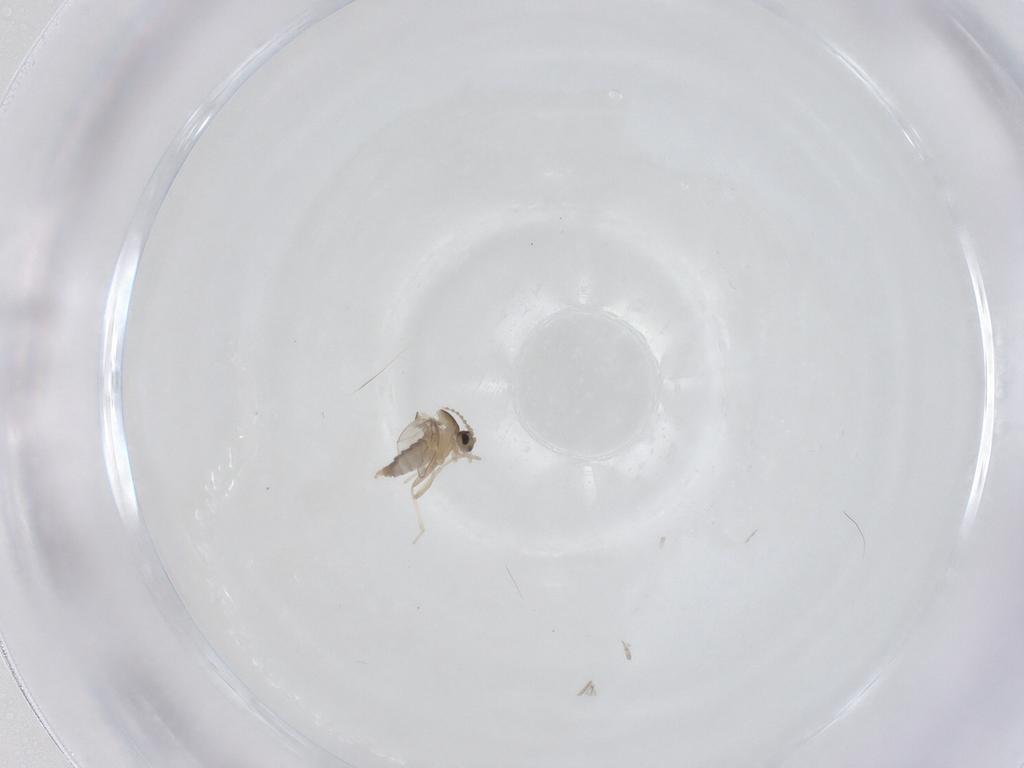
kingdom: Animalia
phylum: Arthropoda
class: Insecta
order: Diptera
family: Cecidomyiidae
